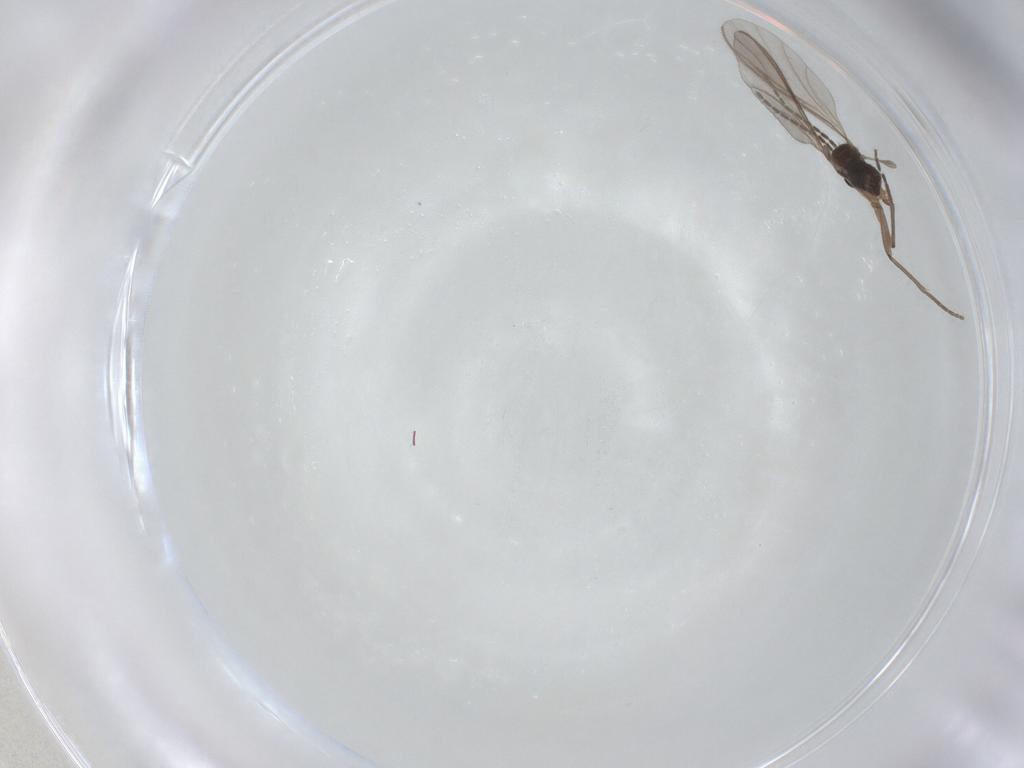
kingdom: Animalia
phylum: Arthropoda
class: Insecta
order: Diptera
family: Sciaridae
